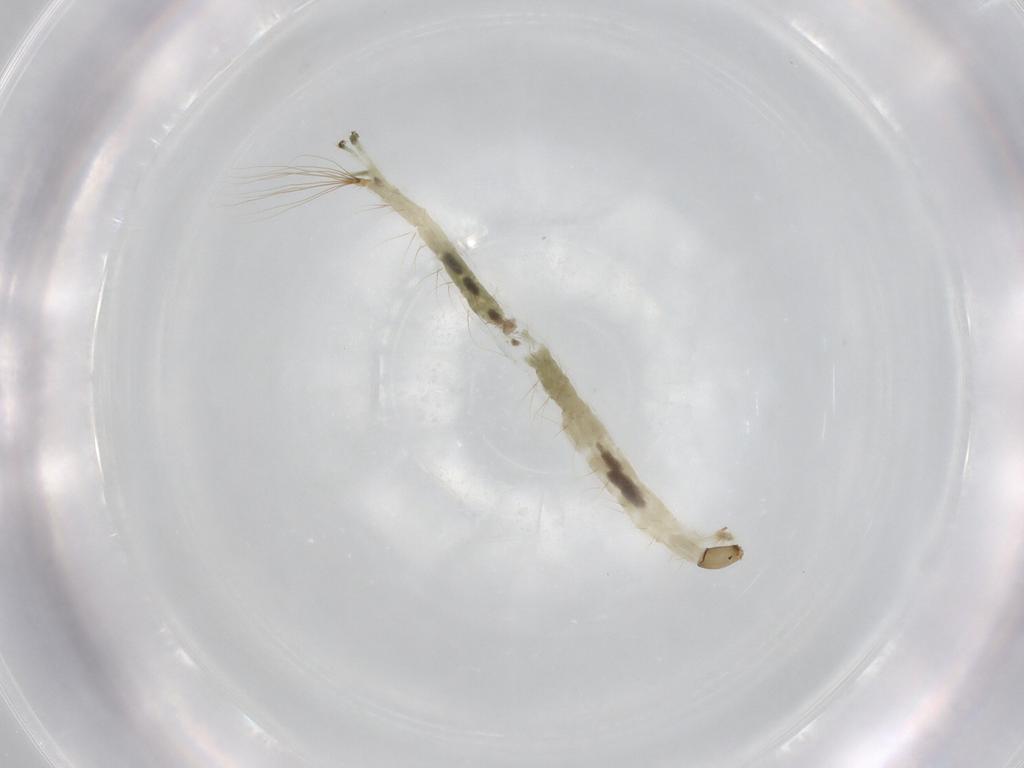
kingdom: Animalia
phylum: Arthropoda
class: Insecta
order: Diptera
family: Chironomidae
